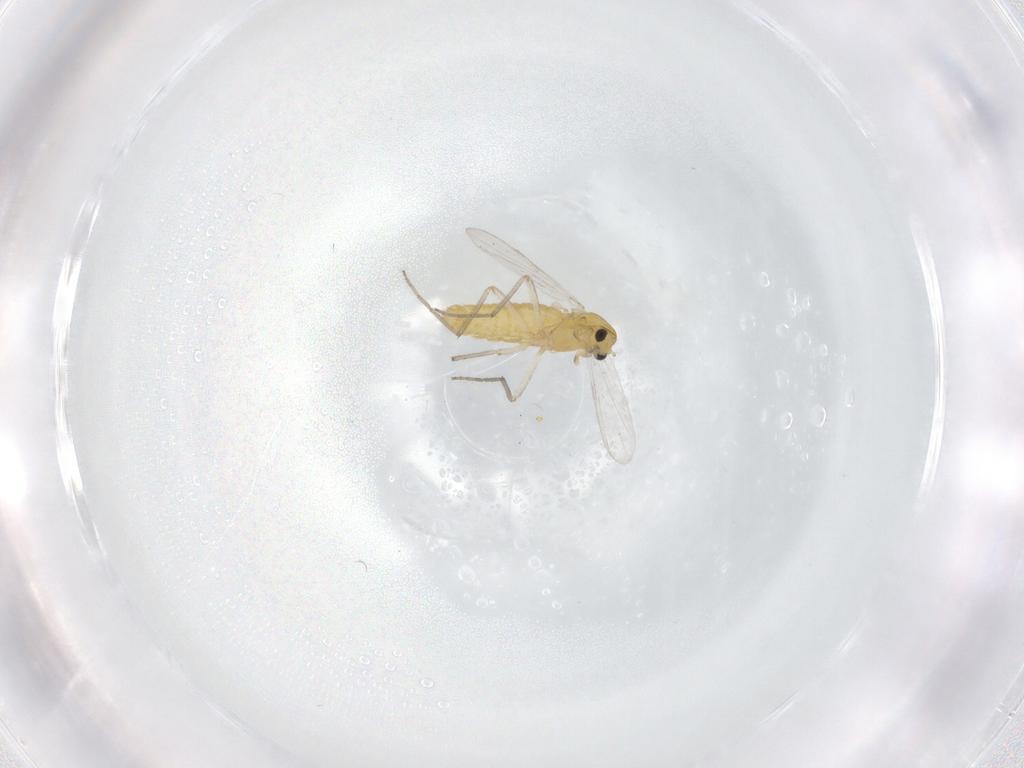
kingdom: Animalia
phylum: Arthropoda
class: Insecta
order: Diptera
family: Chironomidae
